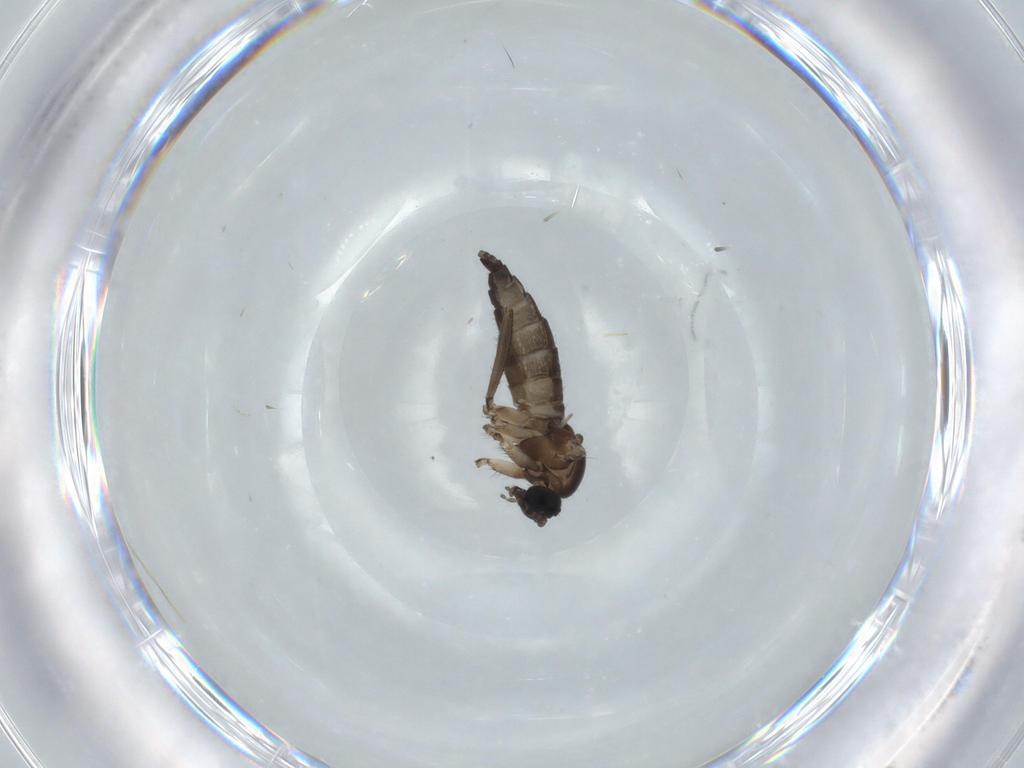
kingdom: Animalia
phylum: Arthropoda
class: Insecta
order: Diptera
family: Sciaridae
